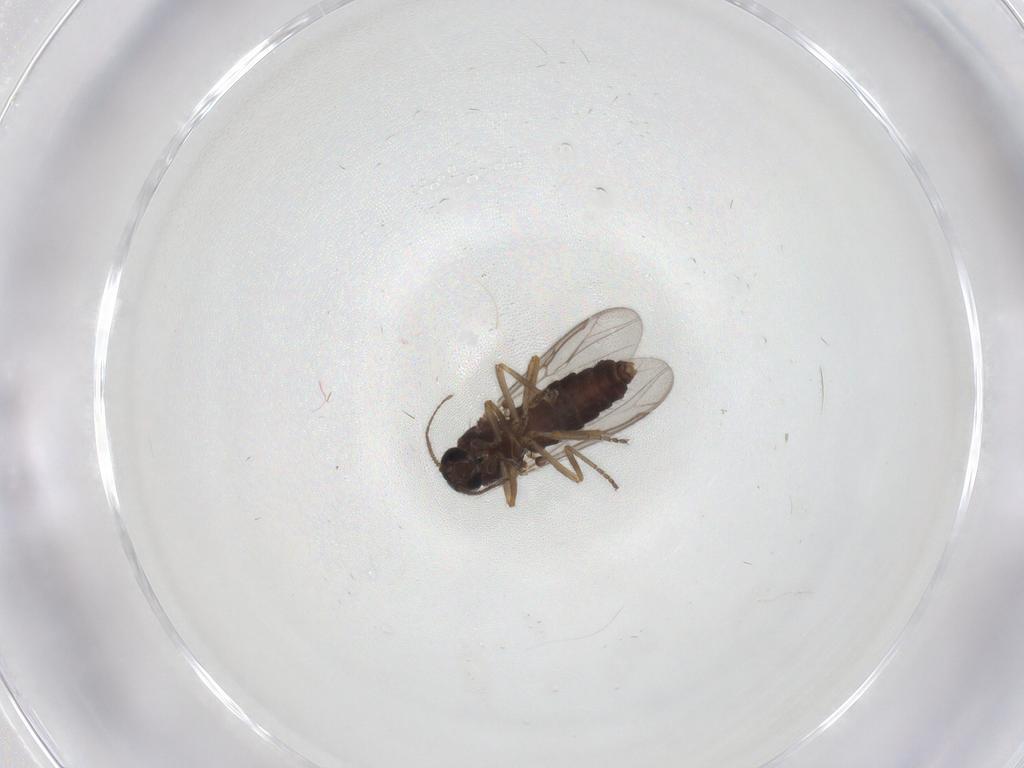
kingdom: Animalia
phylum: Arthropoda
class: Insecta
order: Diptera
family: Ceratopogonidae
